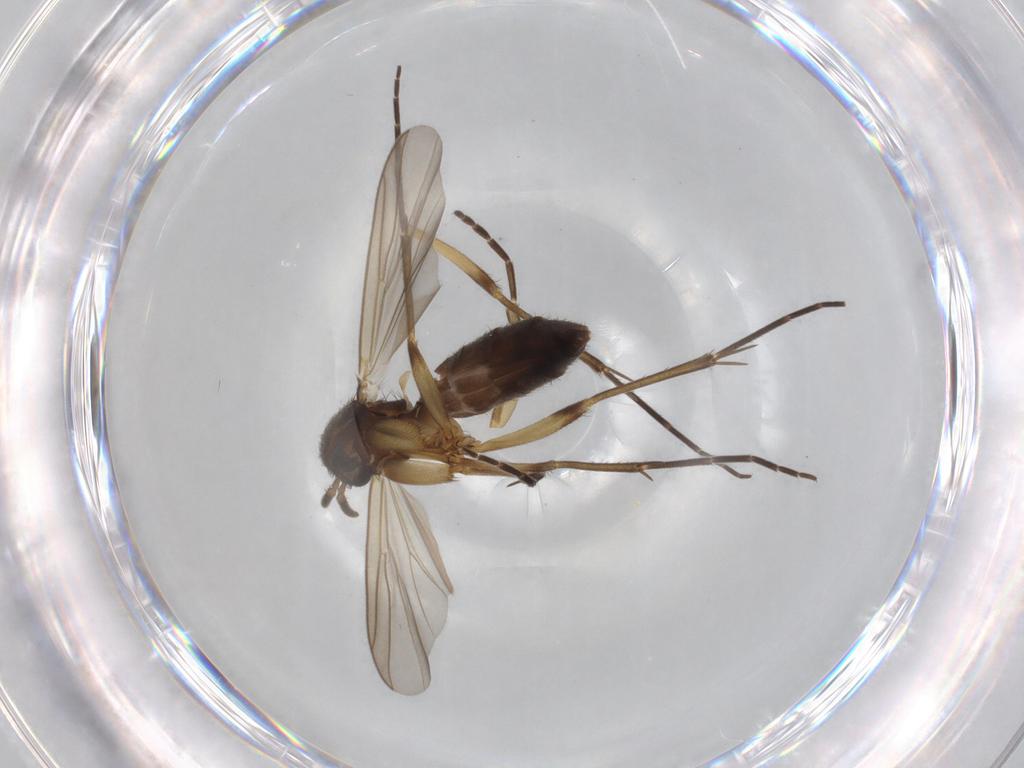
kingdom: Animalia
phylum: Arthropoda
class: Insecta
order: Diptera
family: Mycetophilidae
